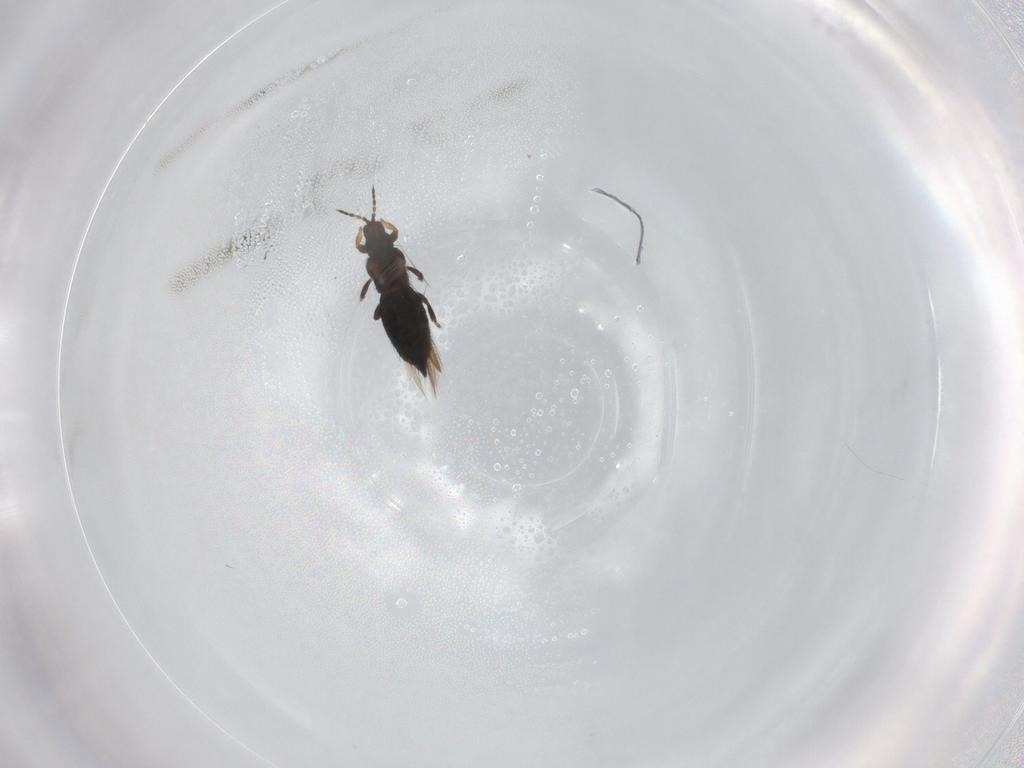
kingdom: Animalia
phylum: Arthropoda
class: Insecta
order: Thysanoptera
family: Thripidae
